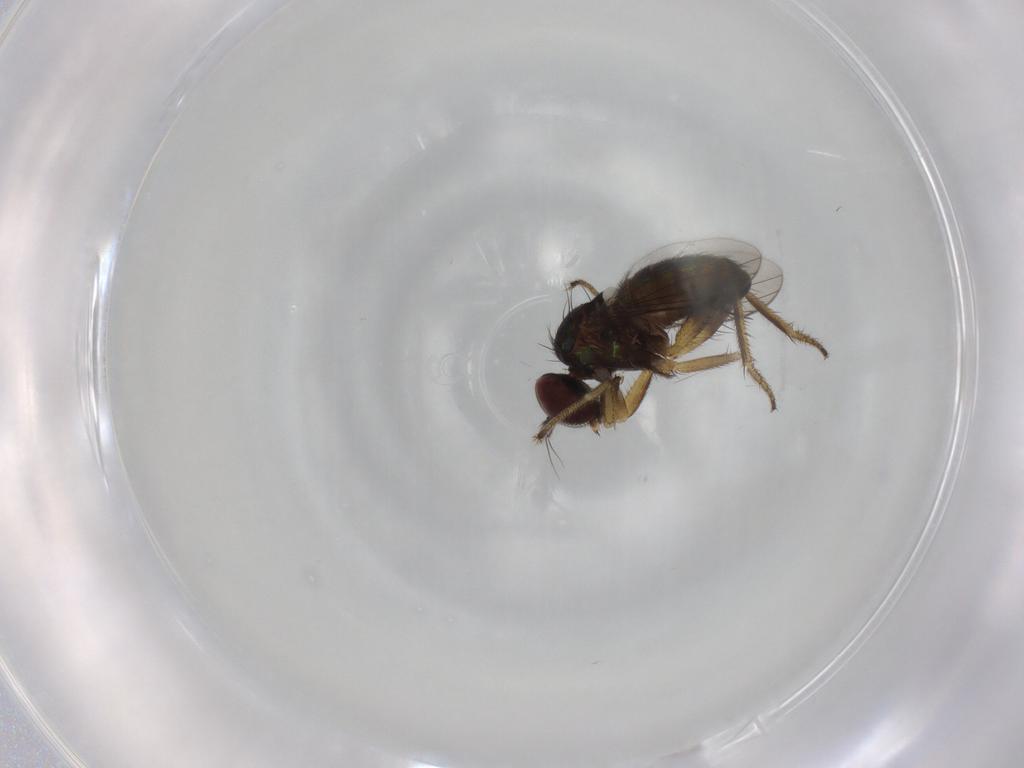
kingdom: Animalia
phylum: Arthropoda
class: Insecta
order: Diptera
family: Dolichopodidae
